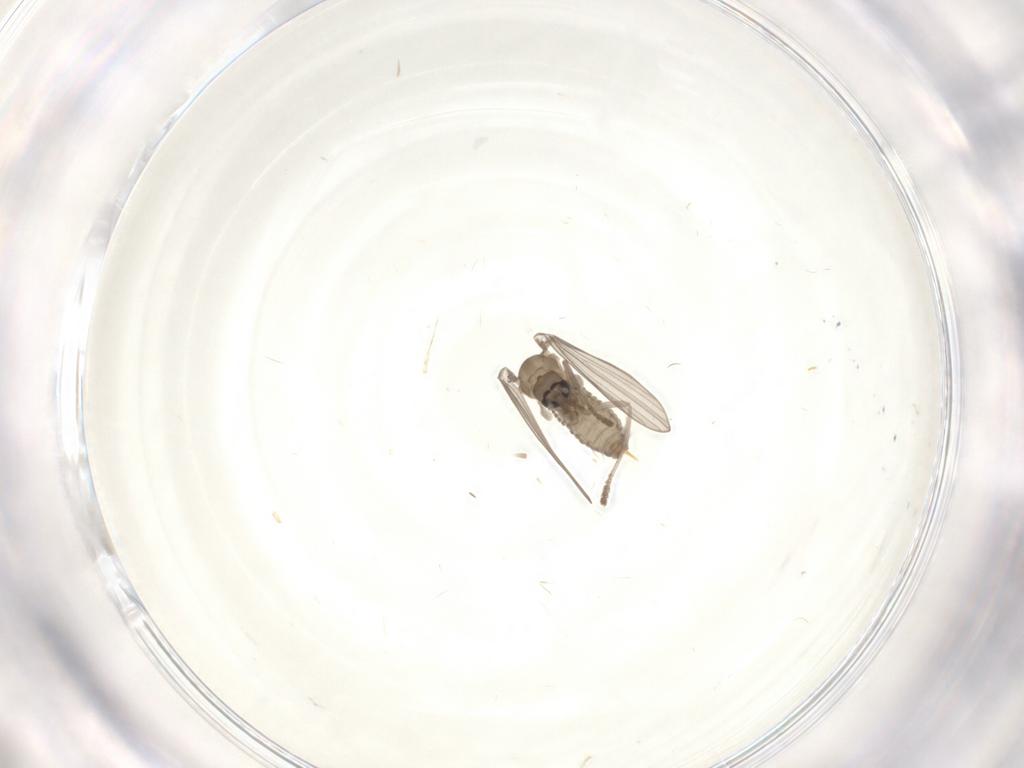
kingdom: Animalia
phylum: Arthropoda
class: Insecta
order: Diptera
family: Psychodidae
